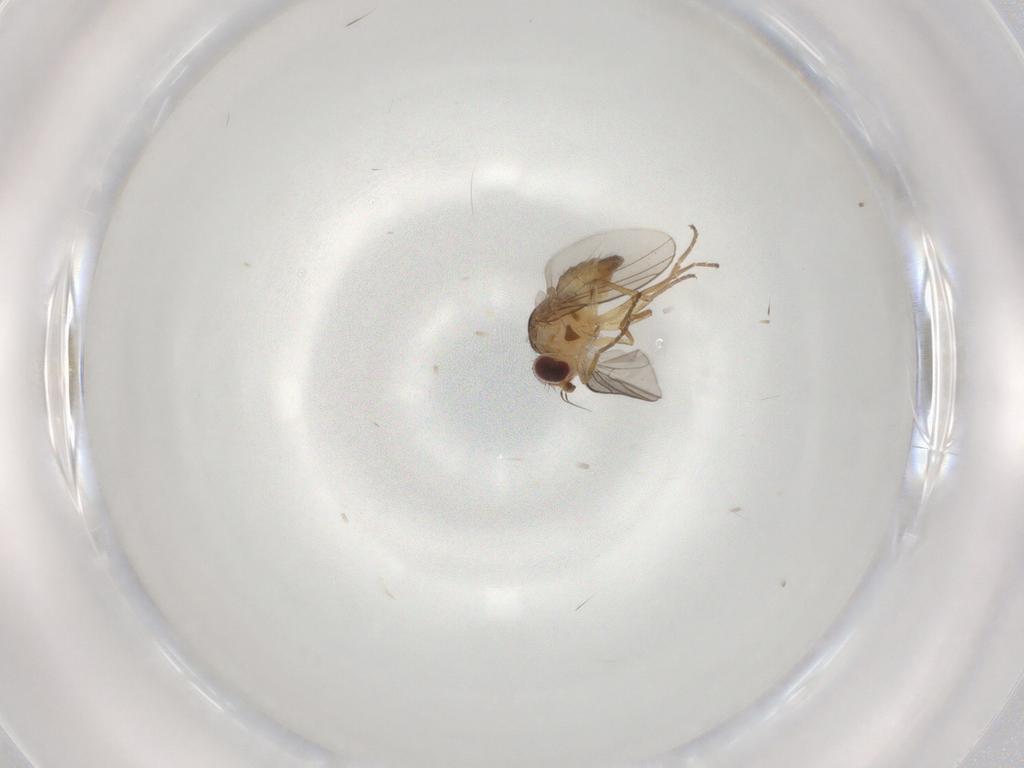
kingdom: Animalia
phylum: Arthropoda
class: Insecta
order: Diptera
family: Agromyzidae
